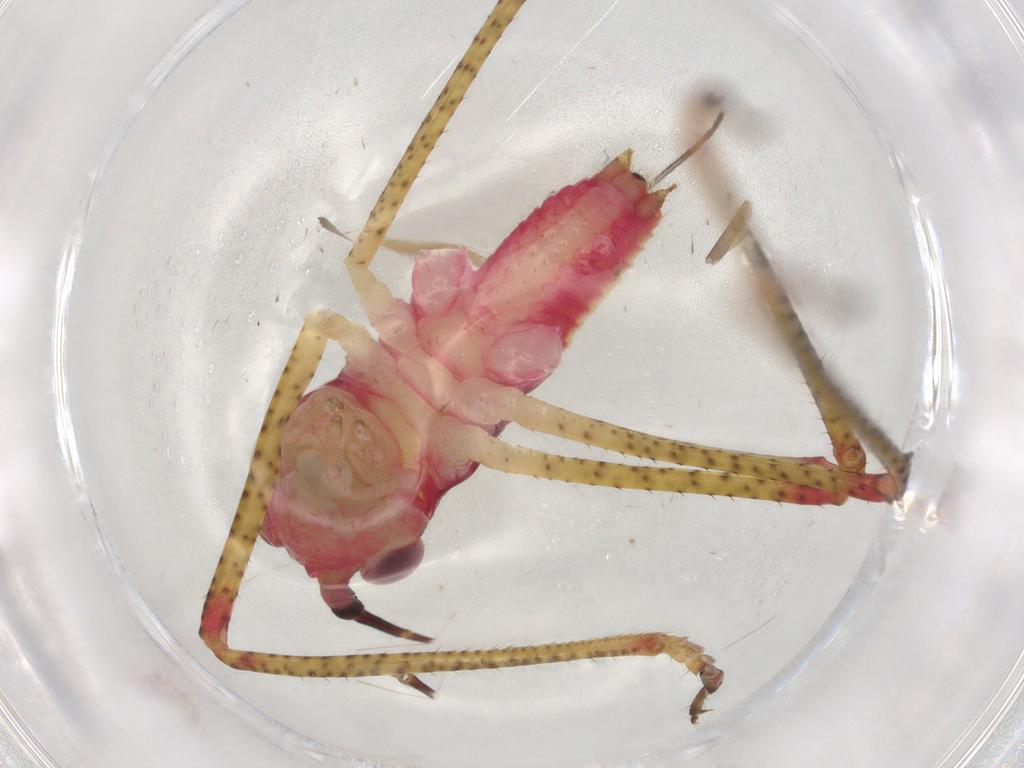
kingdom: Animalia
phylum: Arthropoda
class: Insecta
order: Orthoptera
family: Tettigoniidae
